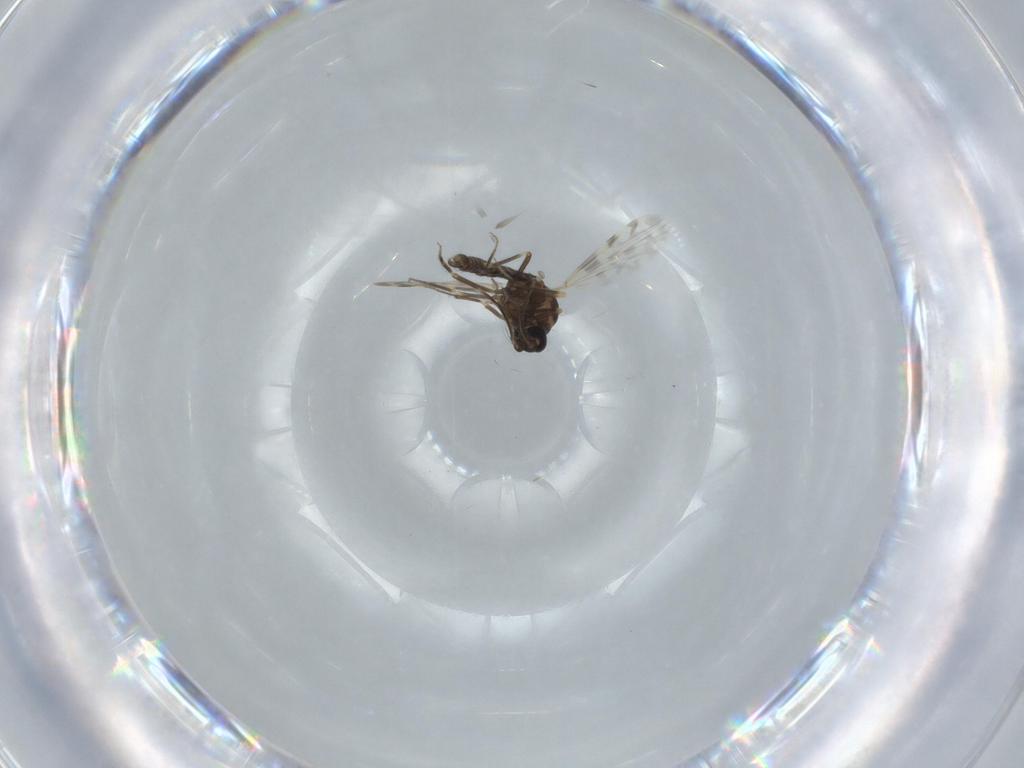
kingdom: Animalia
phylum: Arthropoda
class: Insecta
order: Diptera
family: Ceratopogonidae
